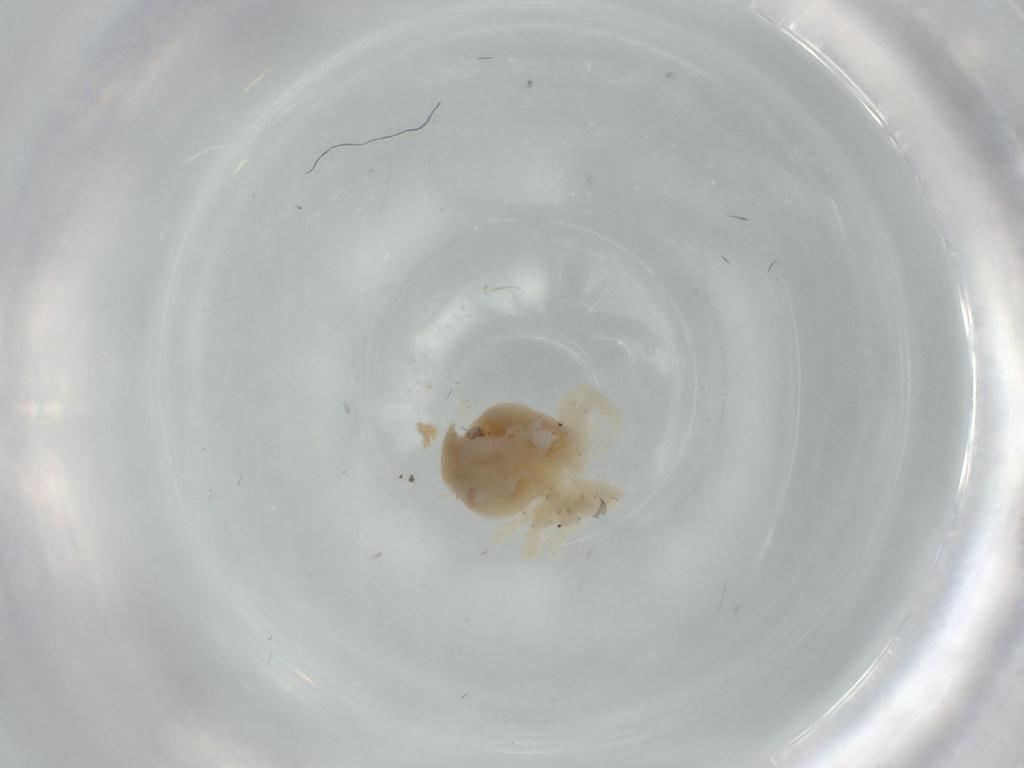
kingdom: Animalia
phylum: Arthropoda
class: Arachnida
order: Trombidiformes
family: Anystidae
